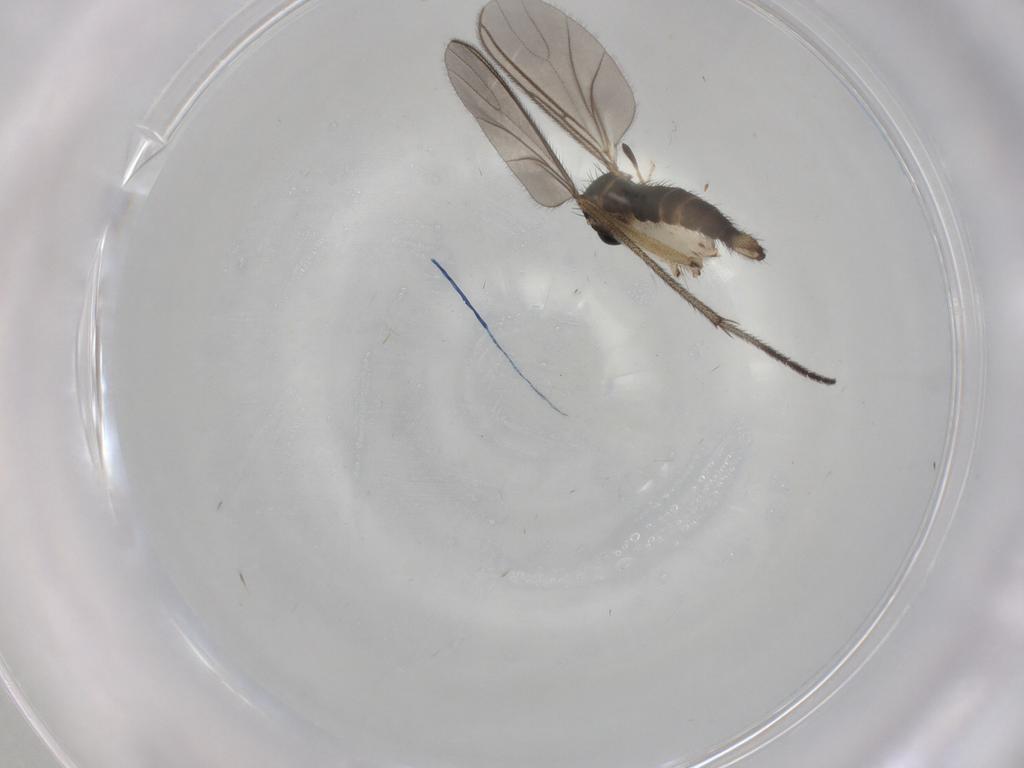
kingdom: Animalia
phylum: Arthropoda
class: Insecta
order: Diptera
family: Sciaridae
